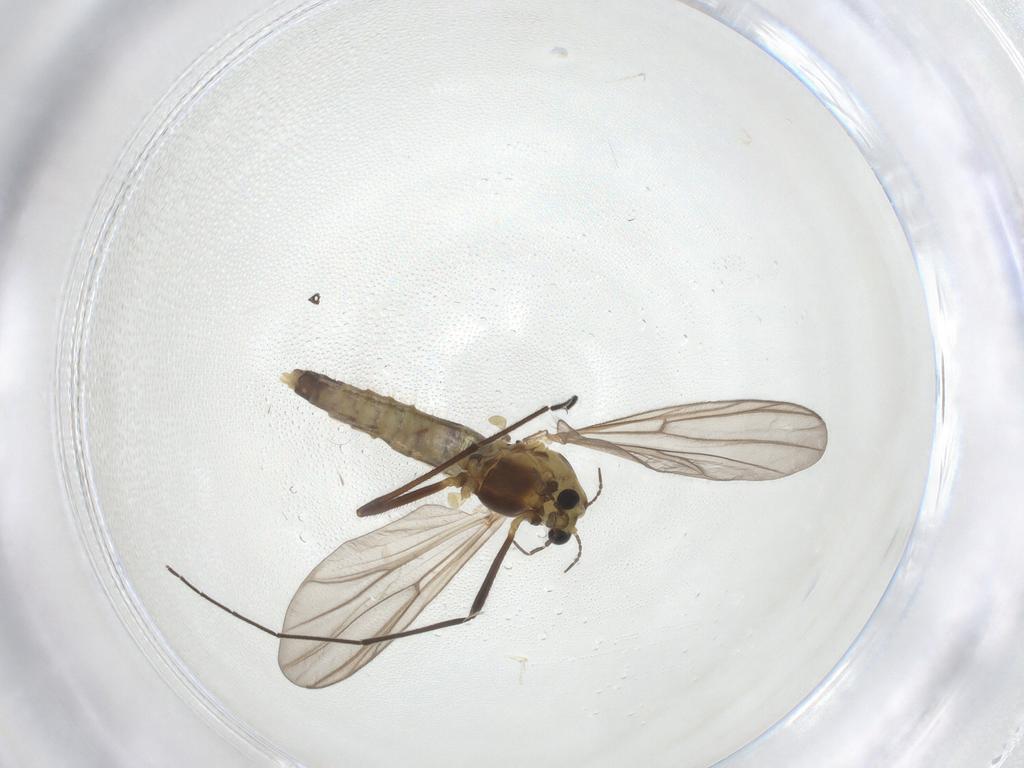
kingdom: Animalia
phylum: Arthropoda
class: Insecta
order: Diptera
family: Chironomidae
